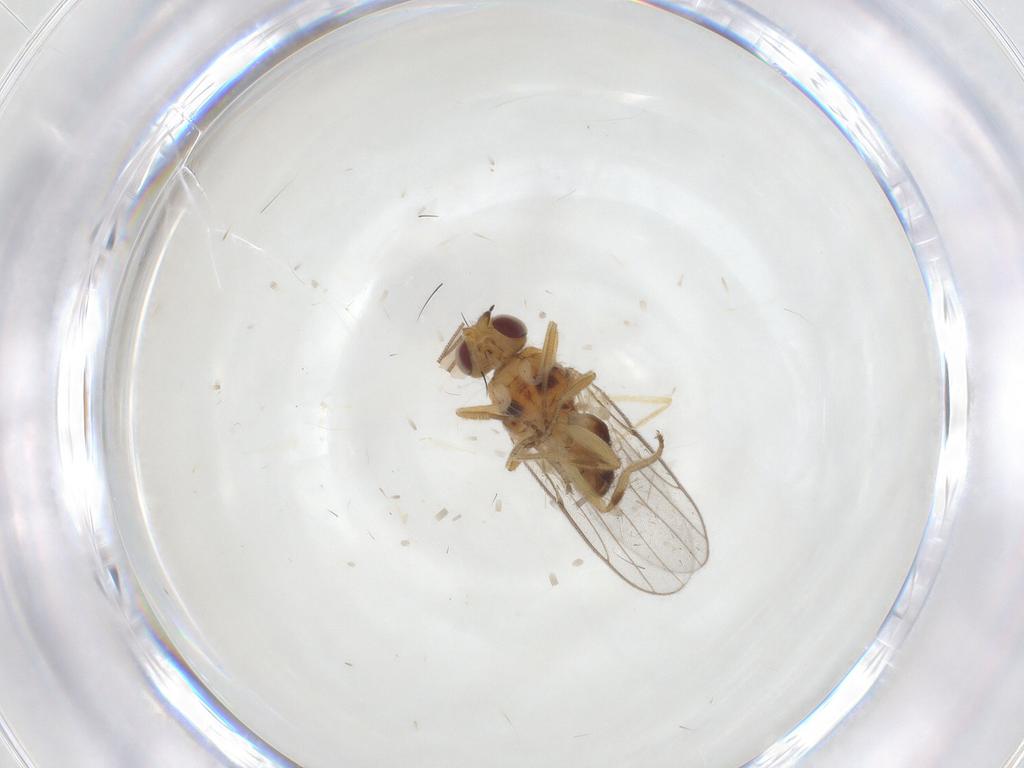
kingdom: Animalia
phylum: Arthropoda
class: Insecta
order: Diptera
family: Chloropidae
